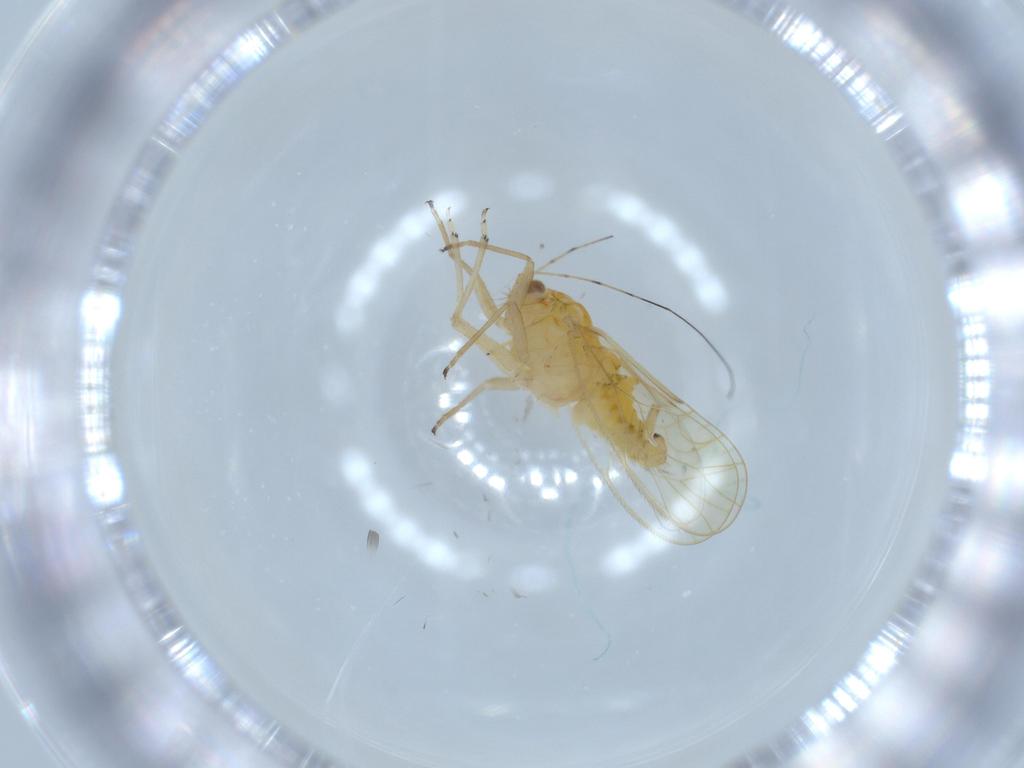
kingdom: Animalia
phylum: Arthropoda
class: Insecta
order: Hemiptera
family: Psyllidae
